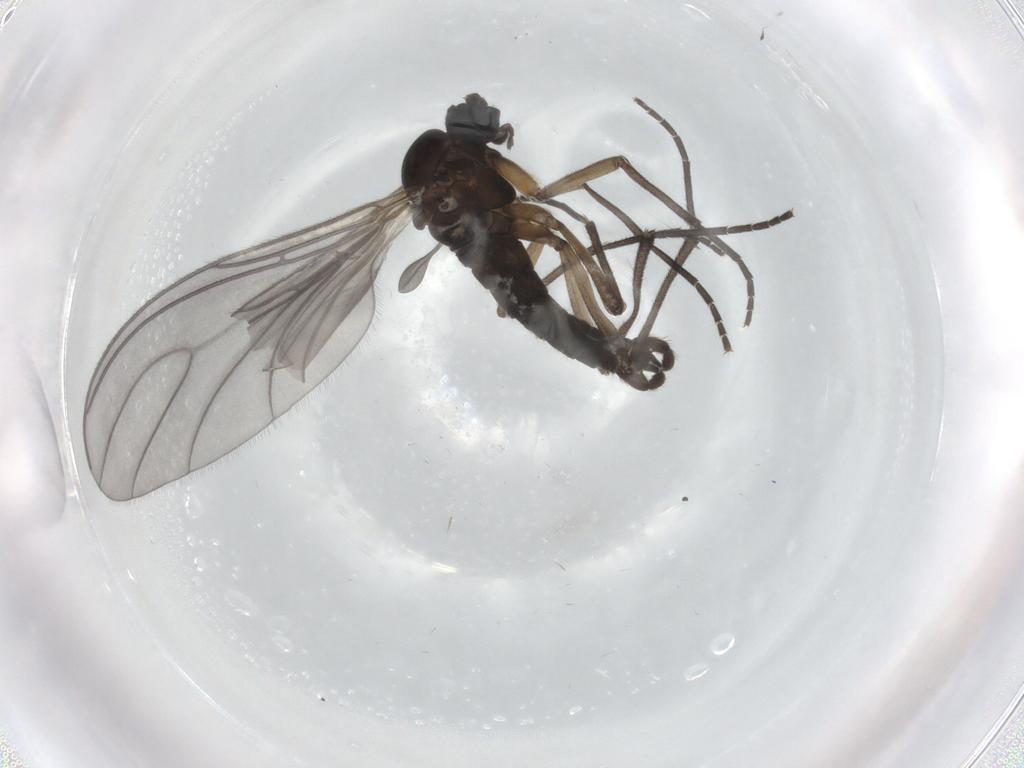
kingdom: Animalia
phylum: Arthropoda
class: Insecta
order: Diptera
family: Sciaridae
